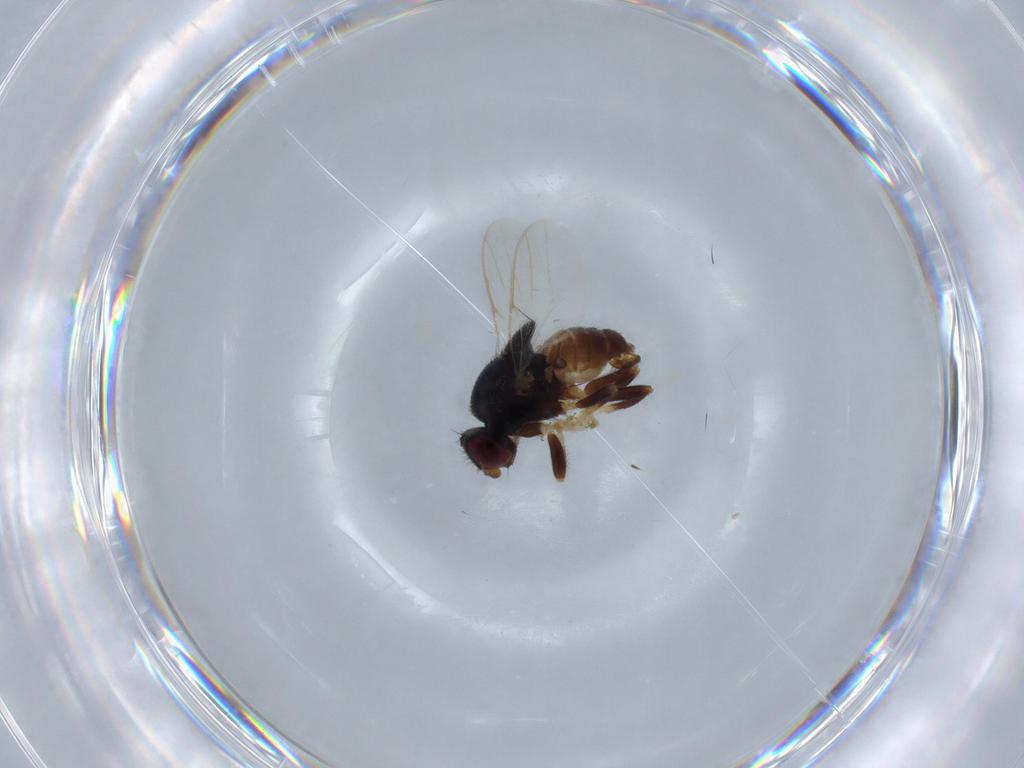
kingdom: Animalia
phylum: Arthropoda
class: Insecta
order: Diptera
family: Chloropidae
